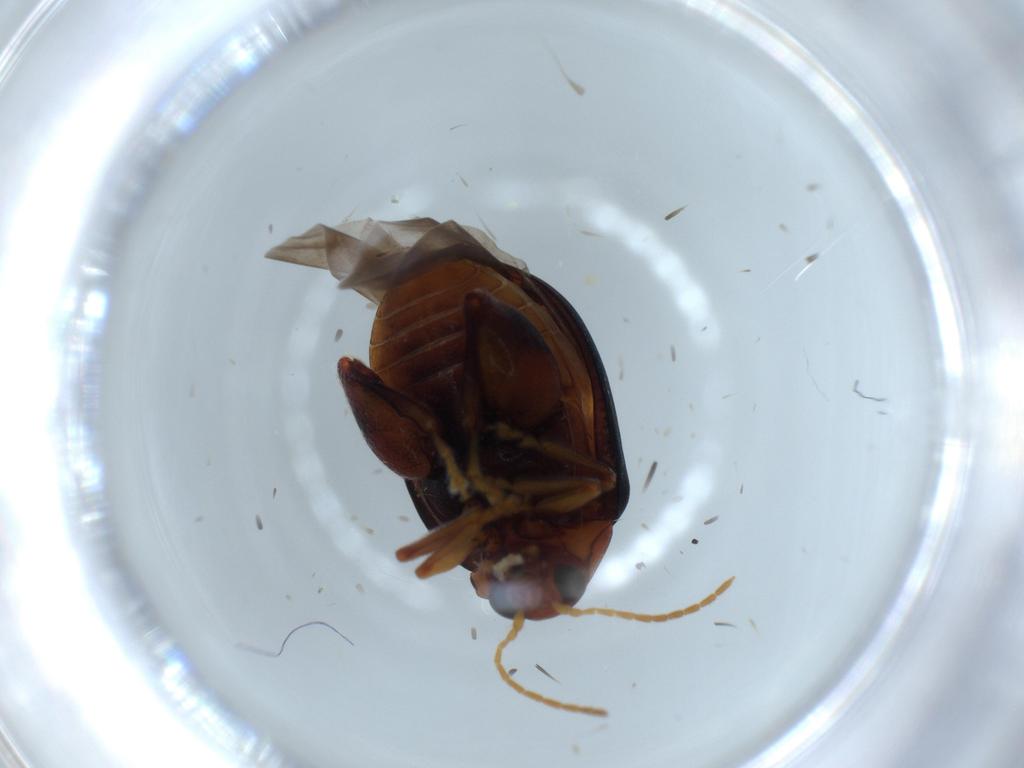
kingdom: Animalia
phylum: Arthropoda
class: Insecta
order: Coleoptera
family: Chrysomelidae
